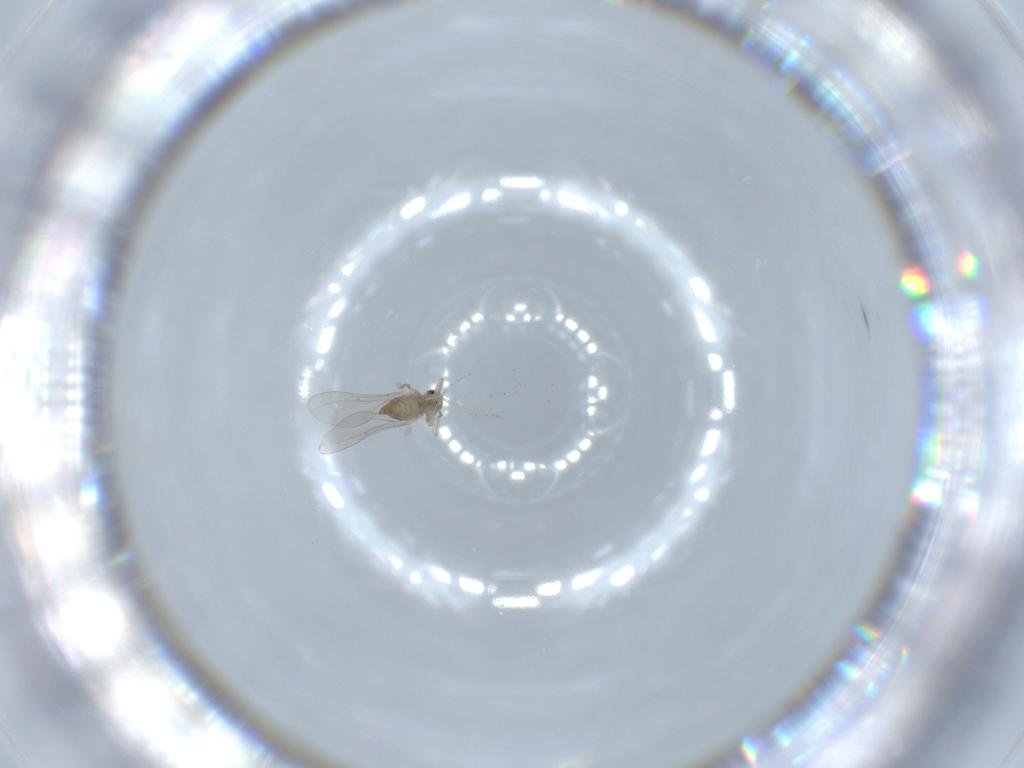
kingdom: Animalia
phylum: Arthropoda
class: Insecta
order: Diptera
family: Cecidomyiidae
